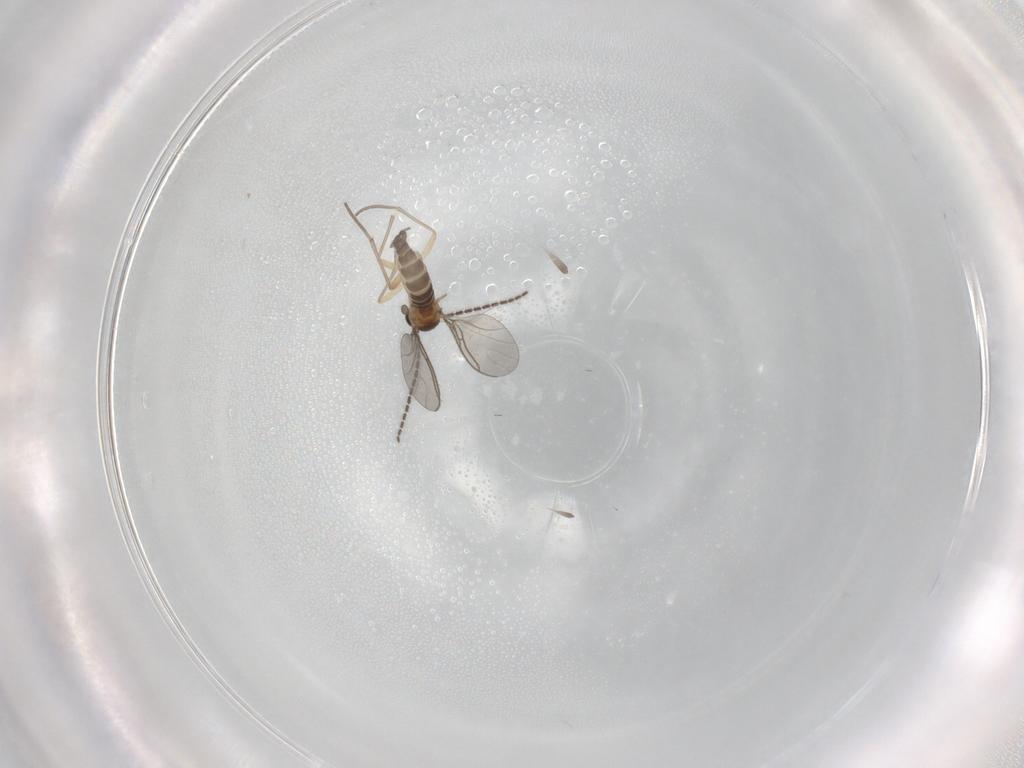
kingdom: Animalia
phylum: Arthropoda
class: Insecta
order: Diptera
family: Sciaridae
